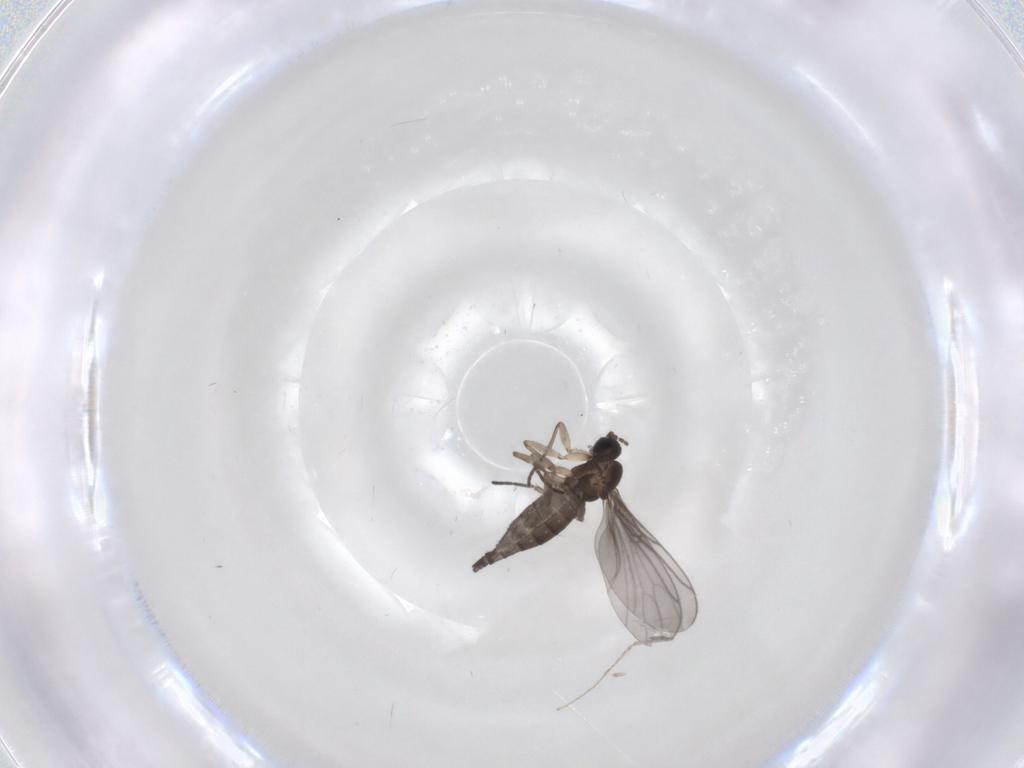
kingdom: Animalia
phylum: Arthropoda
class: Insecta
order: Diptera
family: Sciaridae
